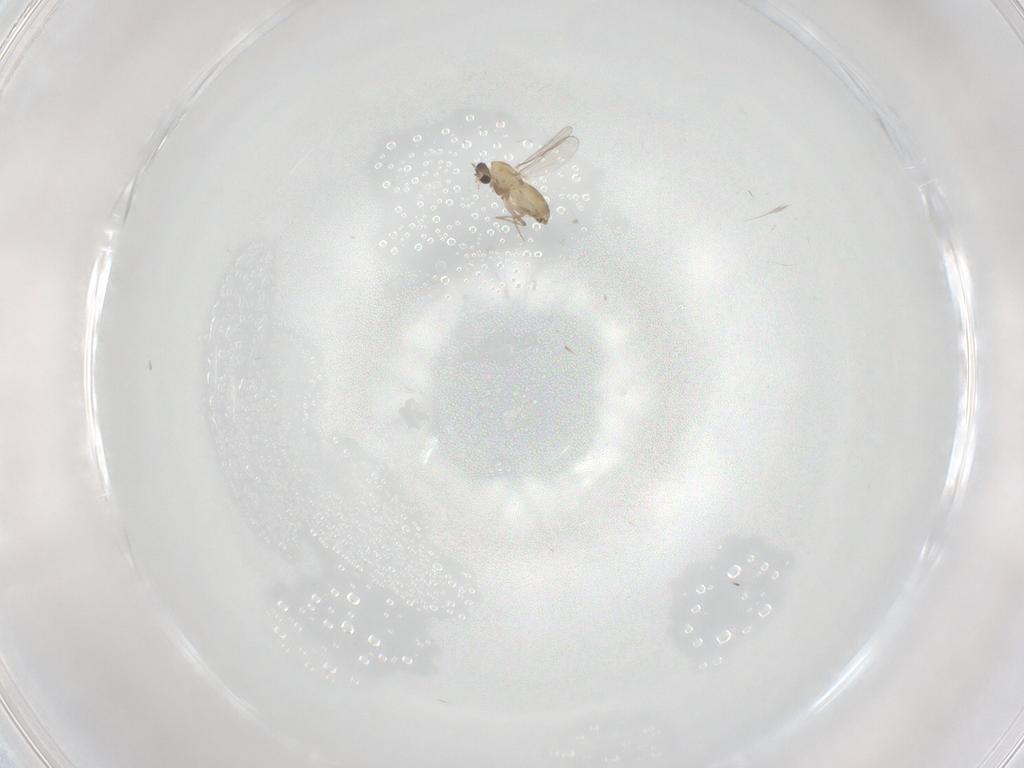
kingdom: Animalia
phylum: Arthropoda
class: Insecta
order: Diptera
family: Chironomidae
